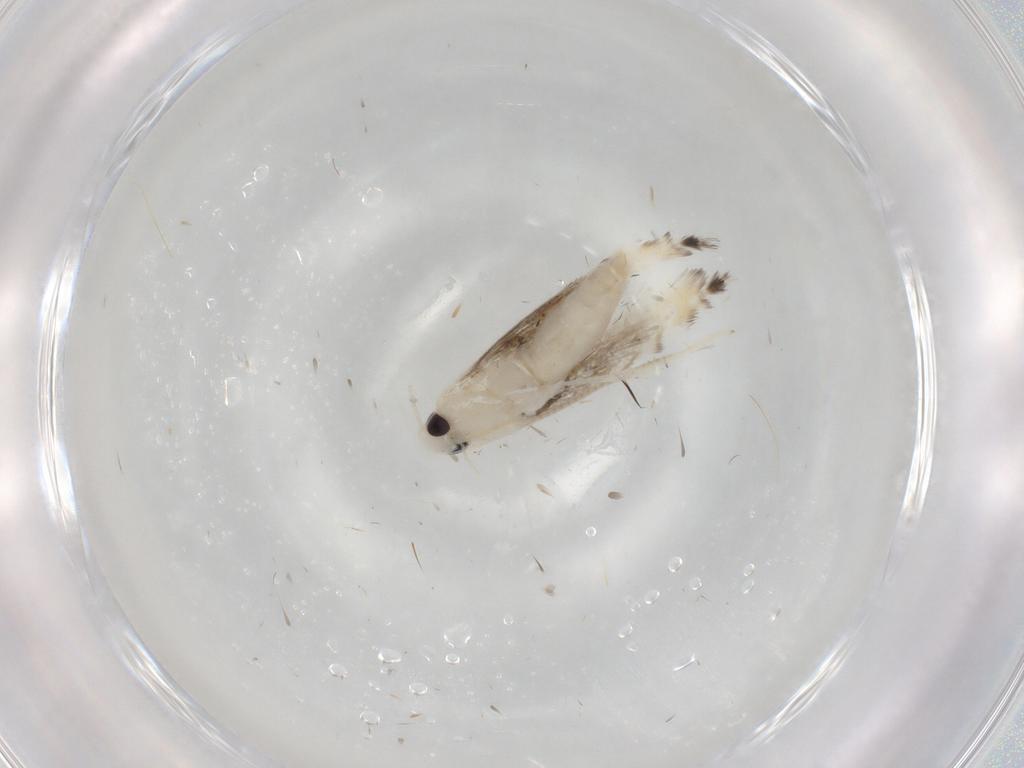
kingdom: Animalia
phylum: Arthropoda
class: Insecta
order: Lepidoptera
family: Gracillariidae
